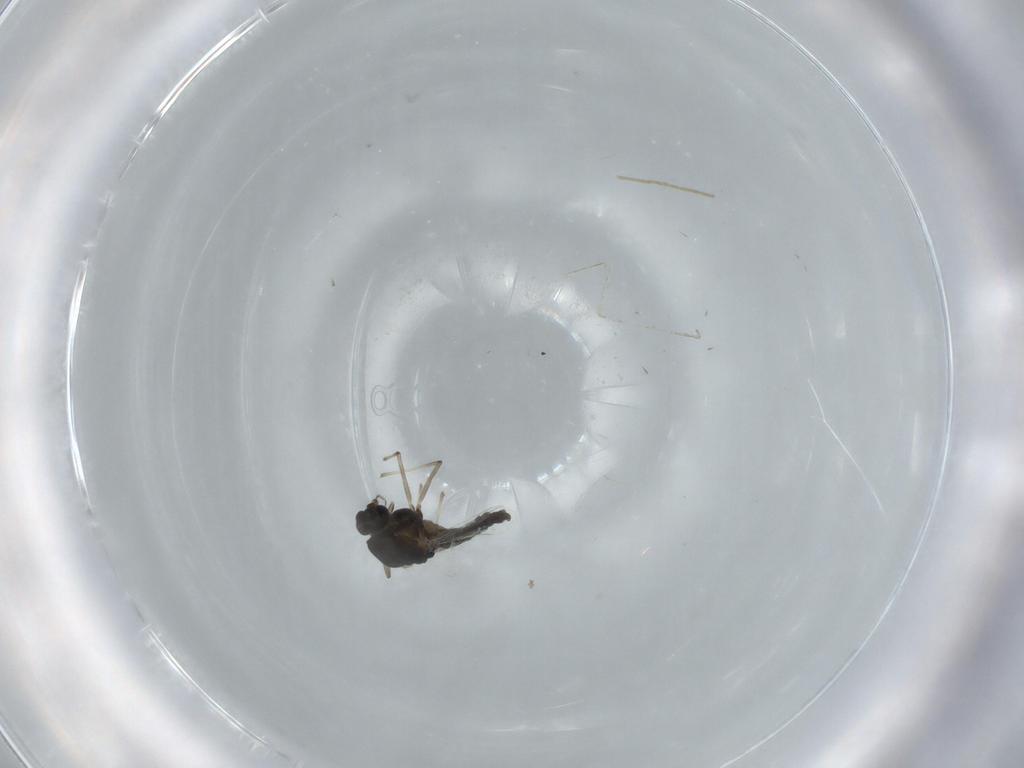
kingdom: Animalia
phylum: Arthropoda
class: Insecta
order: Diptera
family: Chironomidae
